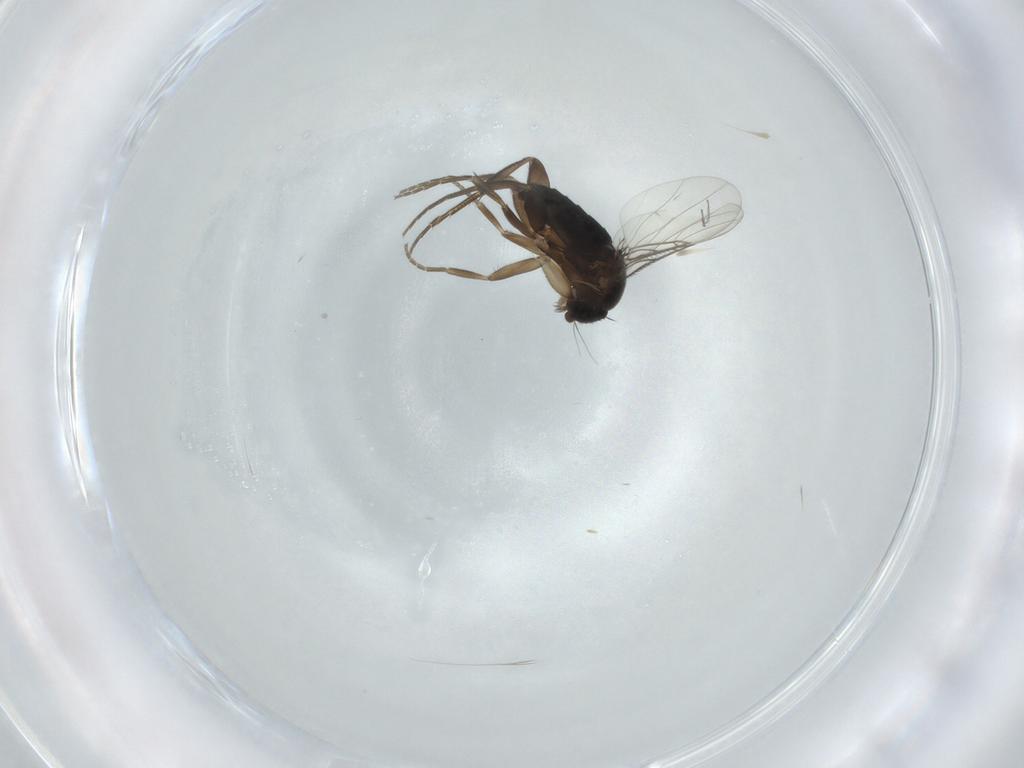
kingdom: Animalia
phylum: Arthropoda
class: Insecta
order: Diptera
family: Phoridae
